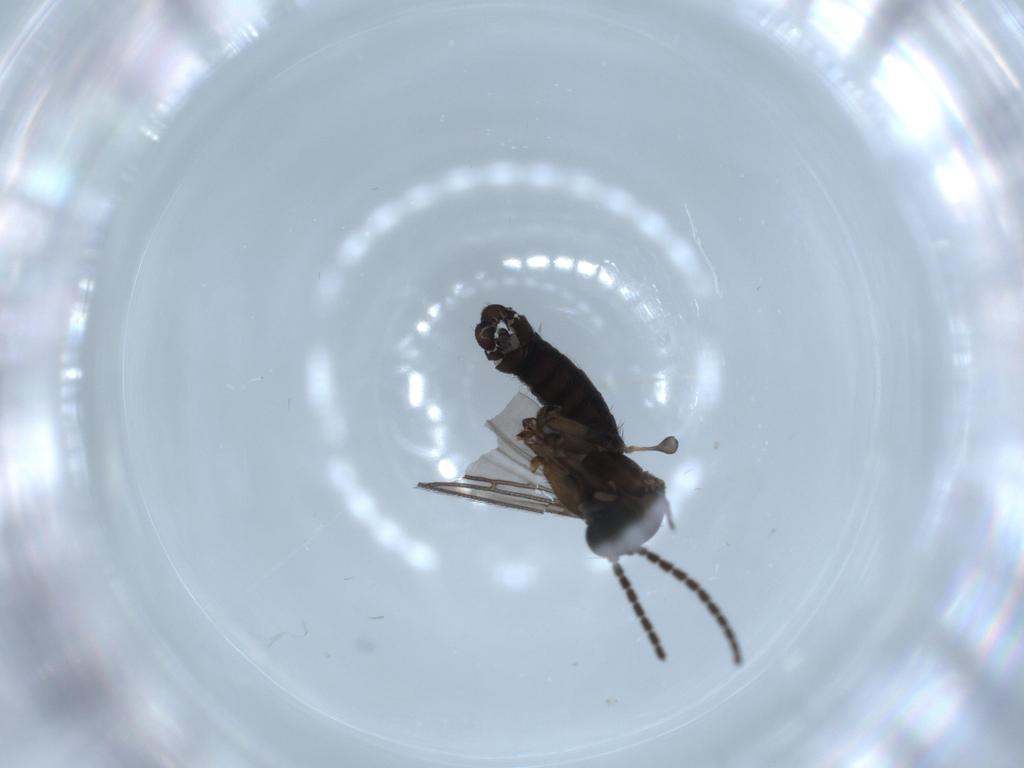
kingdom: Animalia
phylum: Arthropoda
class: Insecta
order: Diptera
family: Sciaridae
